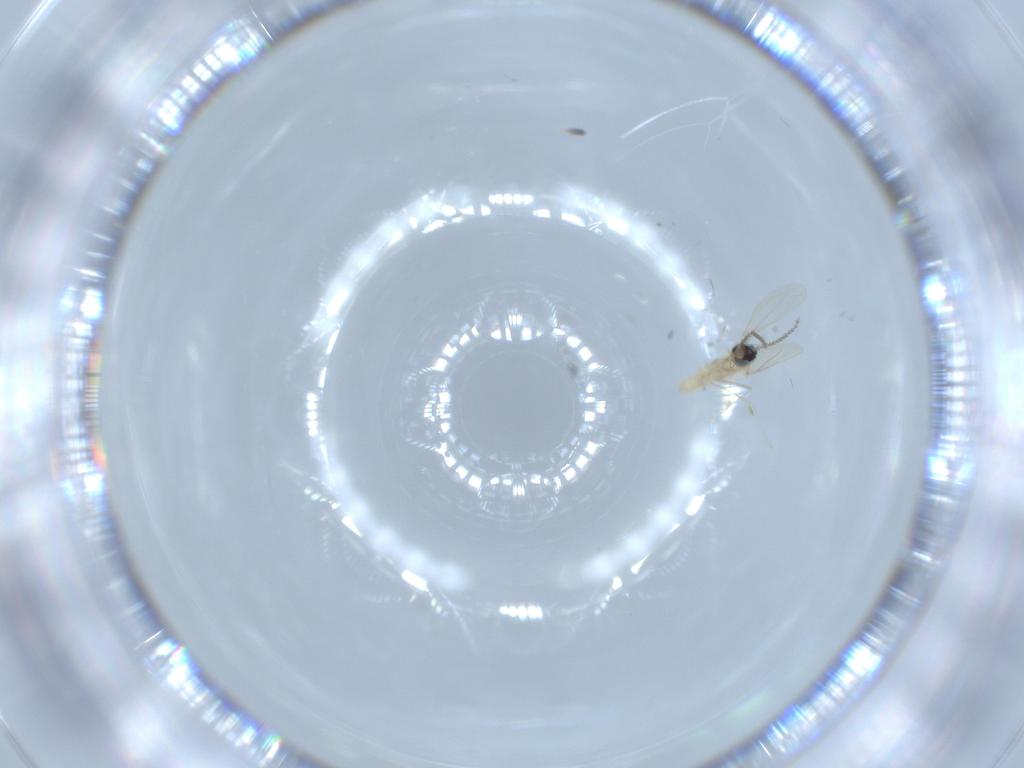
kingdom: Animalia
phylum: Arthropoda
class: Insecta
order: Diptera
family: Cecidomyiidae
